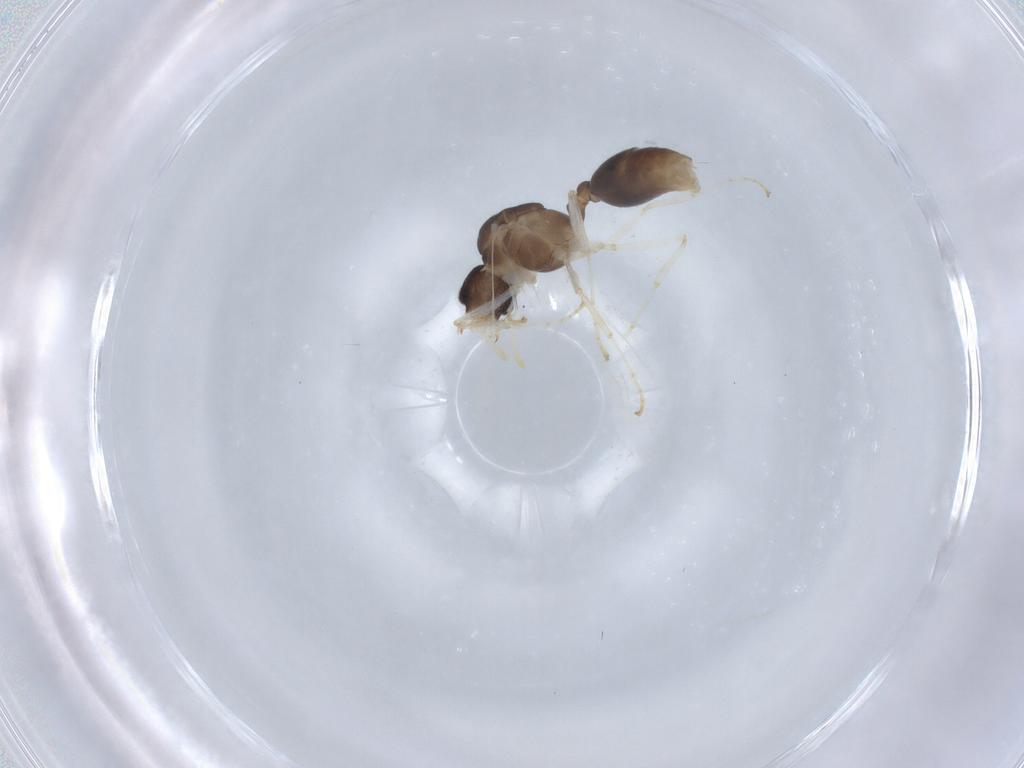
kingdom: Animalia
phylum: Arthropoda
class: Insecta
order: Hymenoptera
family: Formicidae
